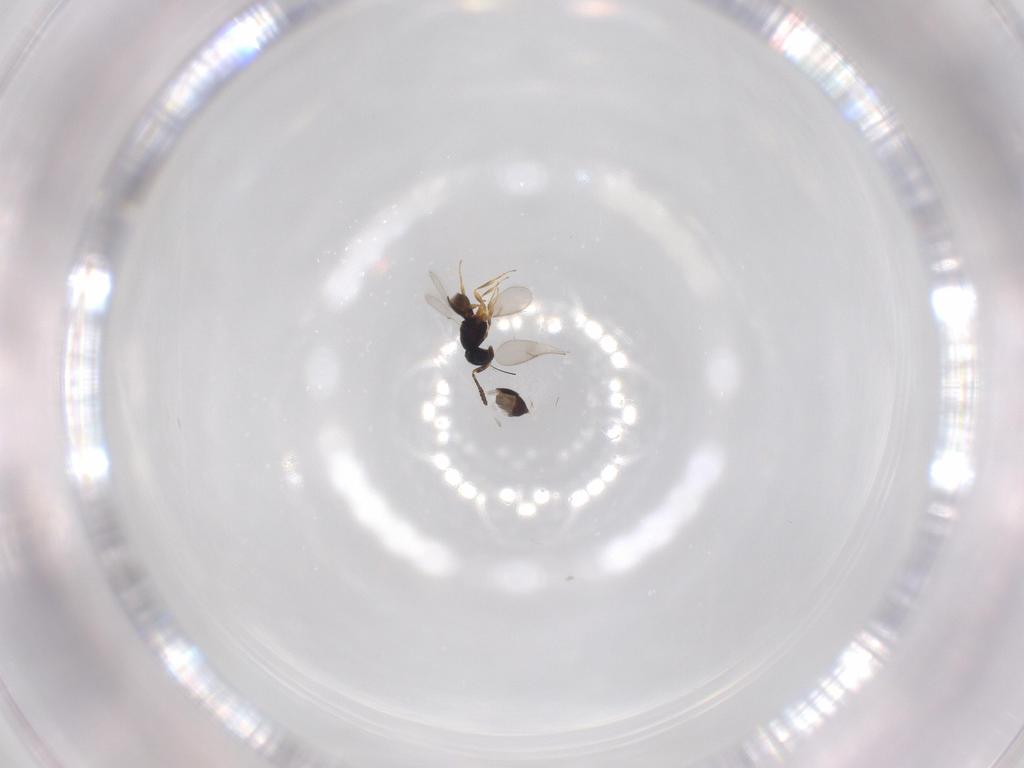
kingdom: Animalia
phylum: Arthropoda
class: Insecta
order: Hymenoptera
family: Scelionidae
